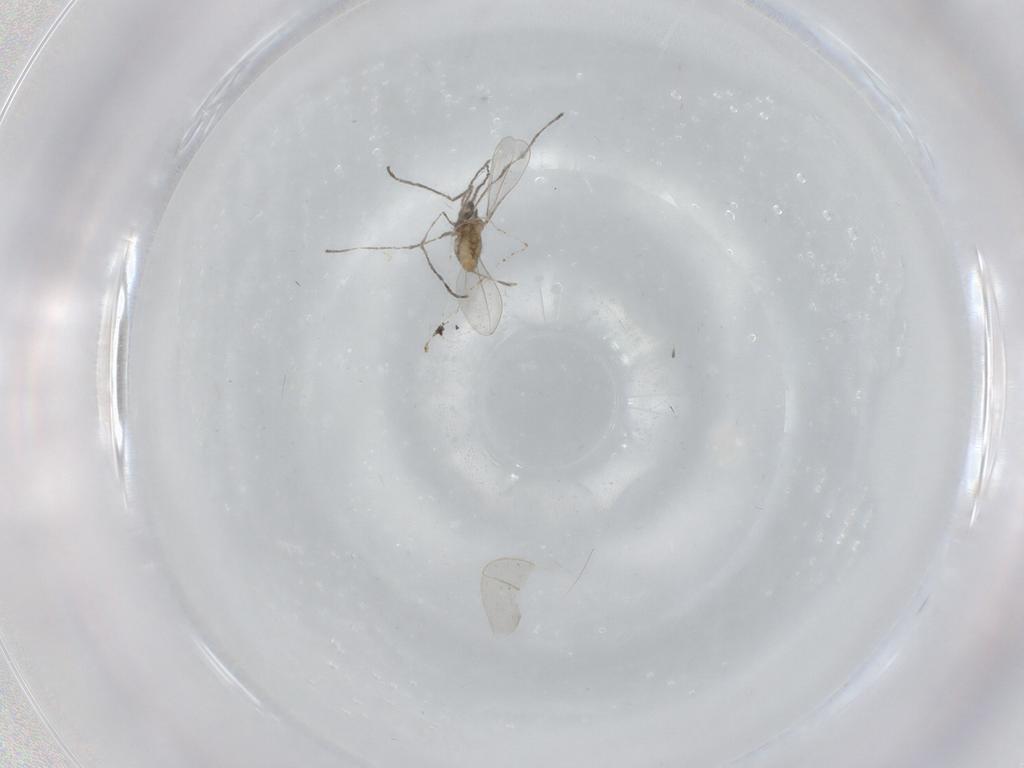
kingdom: Animalia
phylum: Arthropoda
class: Insecta
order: Diptera
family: Cecidomyiidae
